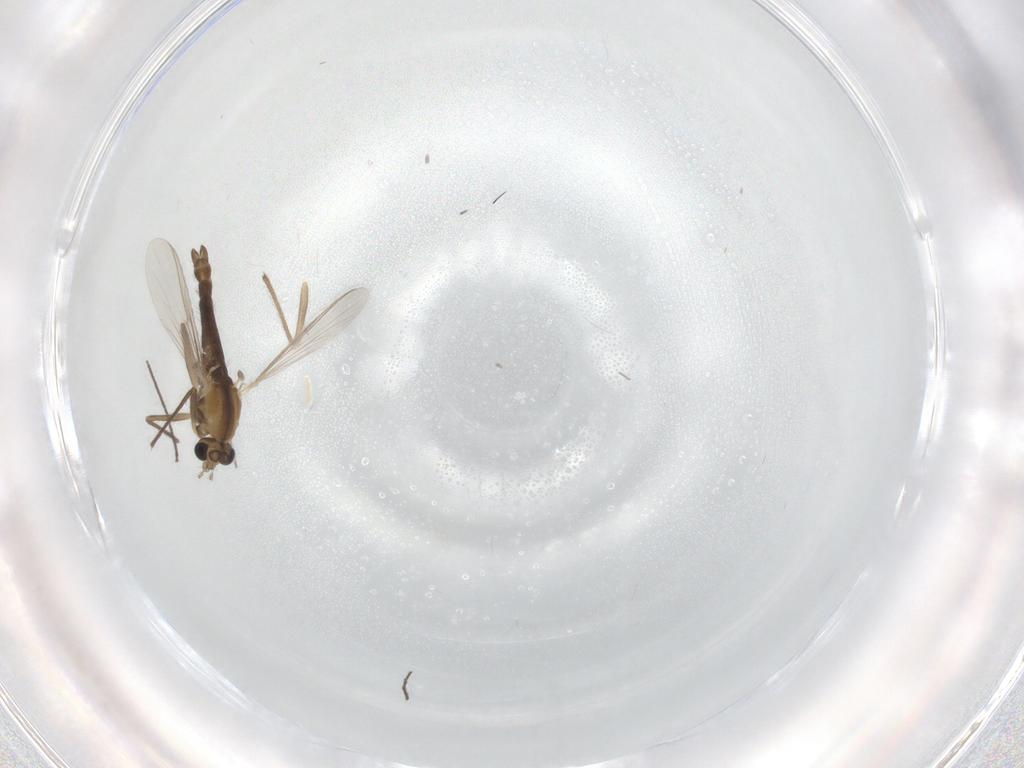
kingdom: Animalia
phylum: Arthropoda
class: Insecta
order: Diptera
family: Chironomidae
